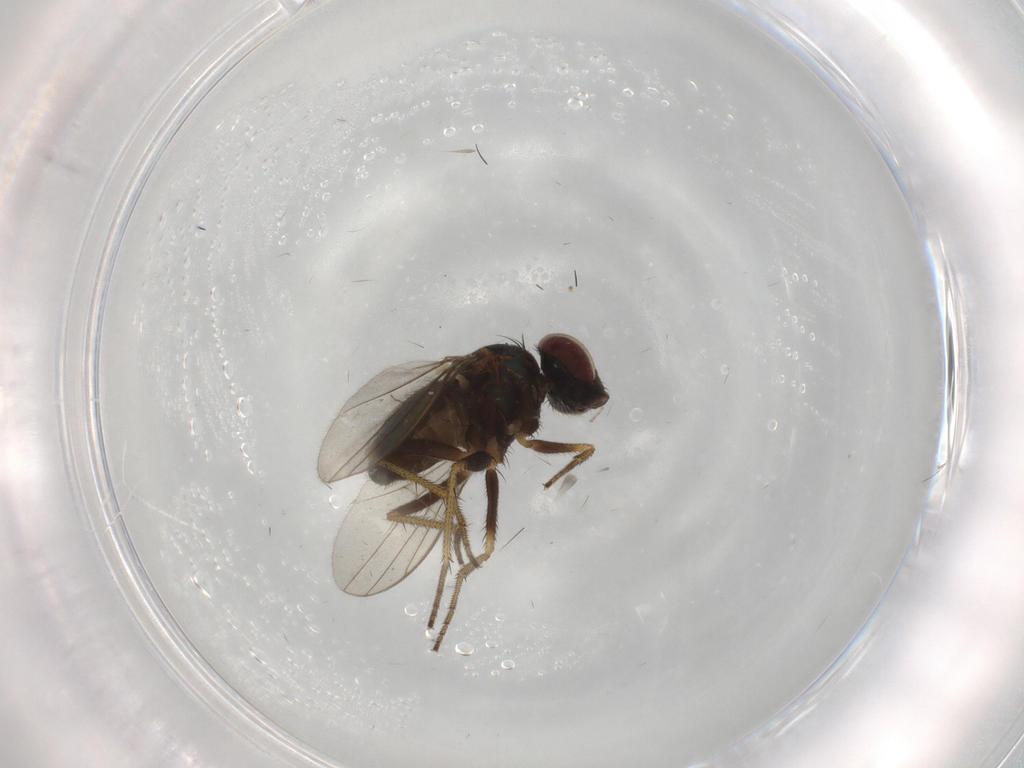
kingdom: Animalia
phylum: Arthropoda
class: Insecta
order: Diptera
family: Dolichopodidae
